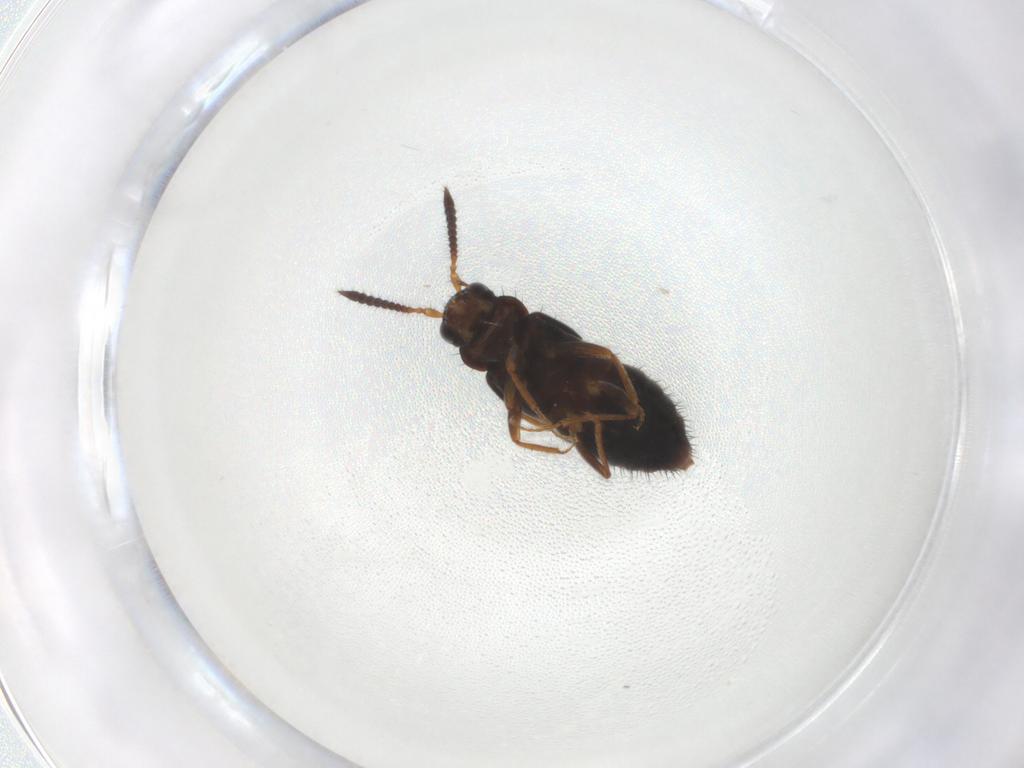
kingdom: Animalia
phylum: Arthropoda
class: Insecta
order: Coleoptera
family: Staphylinidae
